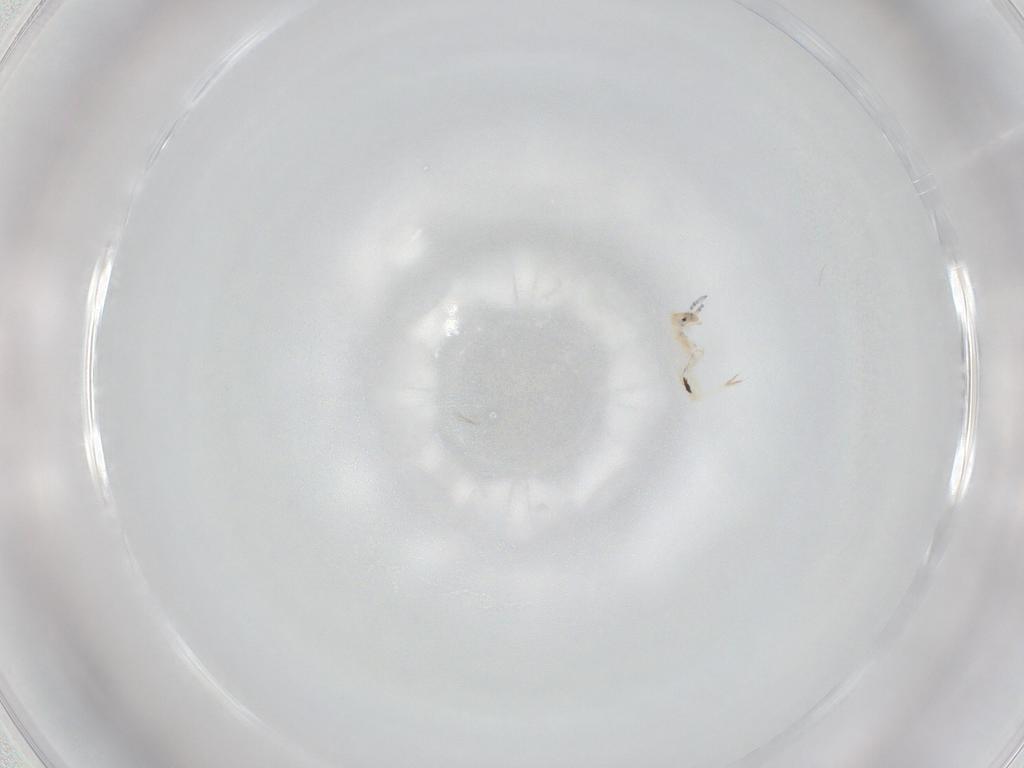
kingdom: Animalia
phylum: Arthropoda
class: Collembola
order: Entomobryomorpha
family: Entomobryidae
